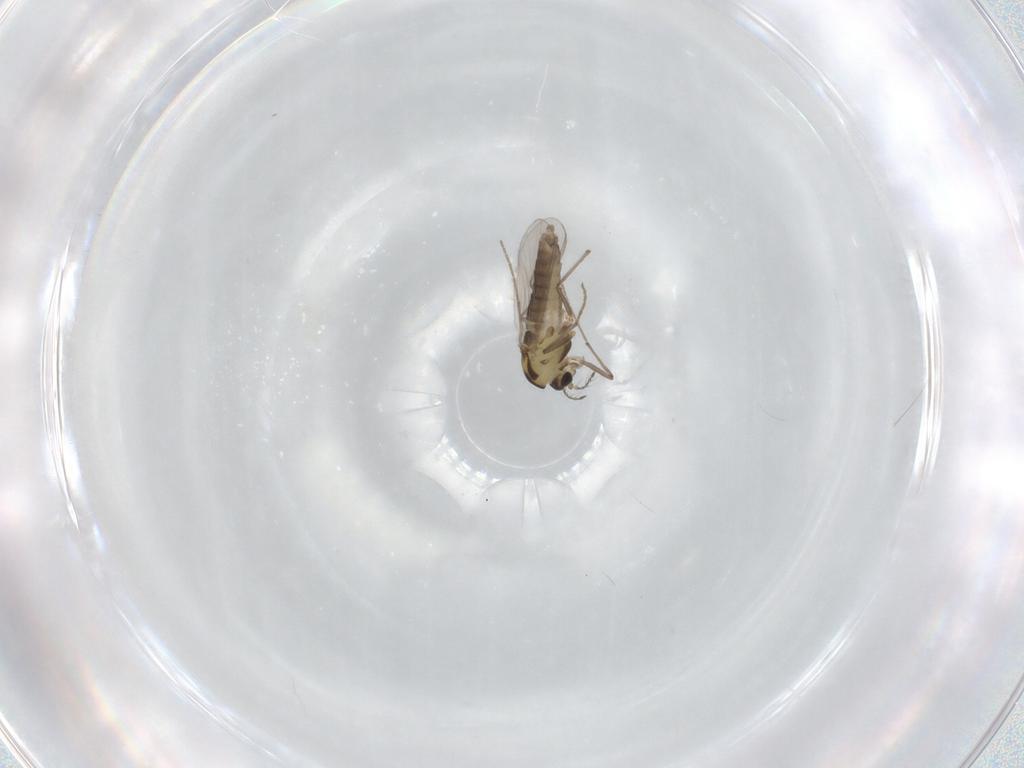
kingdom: Animalia
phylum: Arthropoda
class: Insecta
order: Diptera
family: Chironomidae
